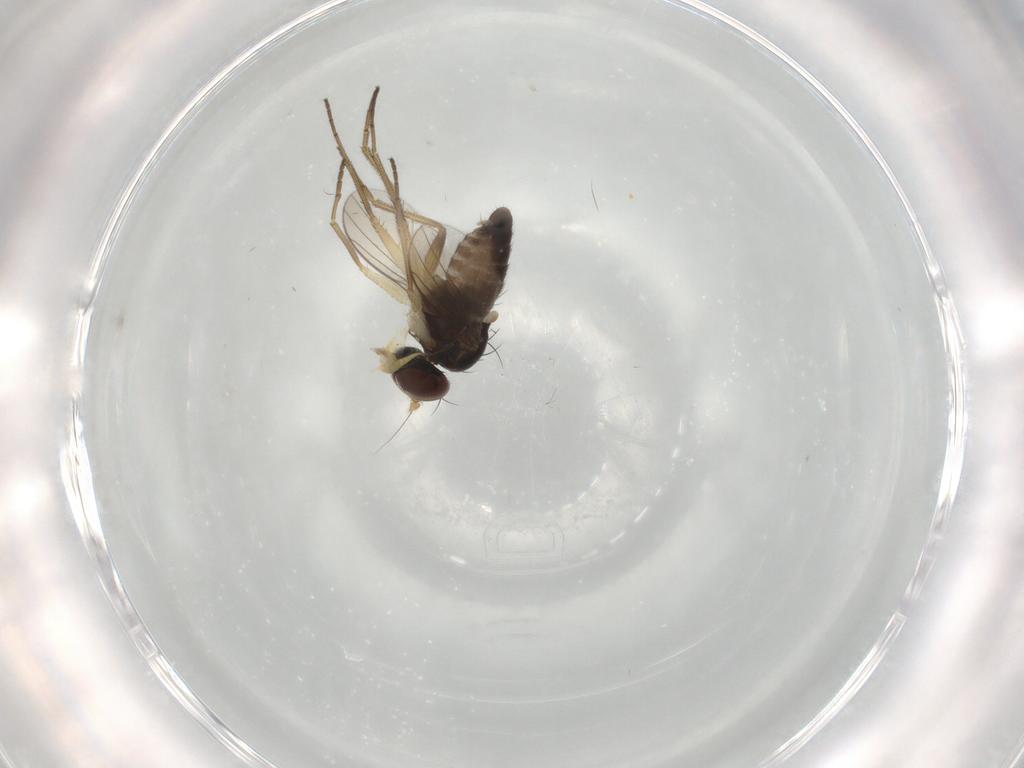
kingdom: Animalia
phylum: Arthropoda
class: Insecta
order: Diptera
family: Dolichopodidae
